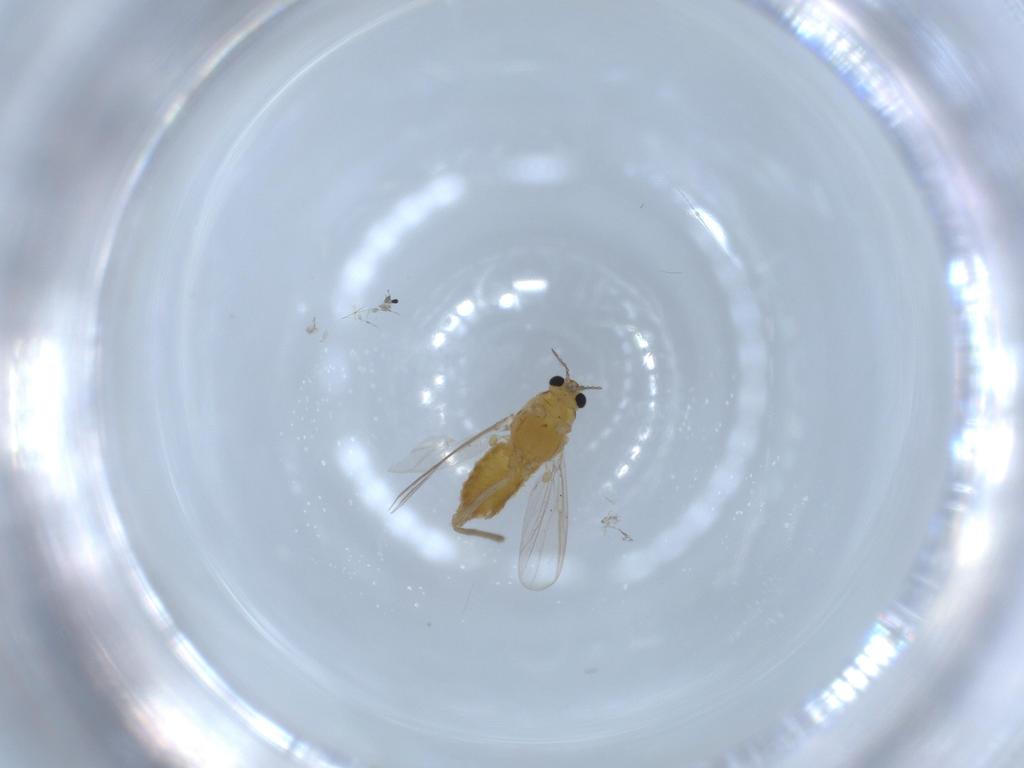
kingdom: Animalia
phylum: Arthropoda
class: Insecta
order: Diptera
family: Chironomidae
